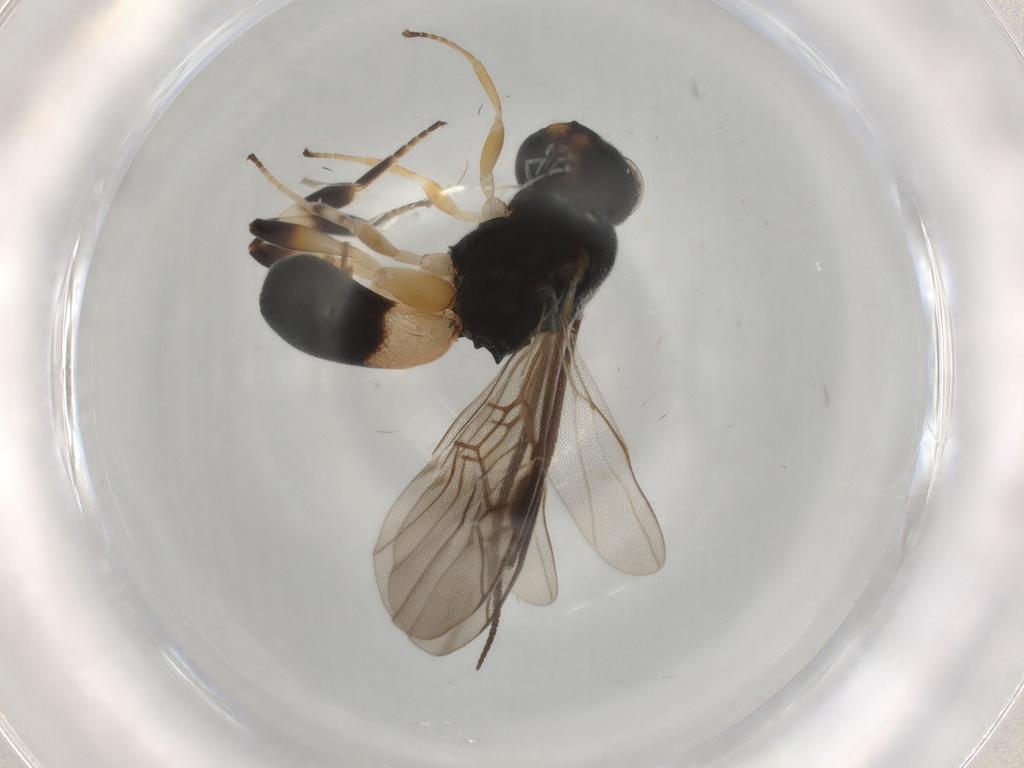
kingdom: Animalia
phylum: Arthropoda
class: Insecta
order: Hymenoptera
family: Braconidae
